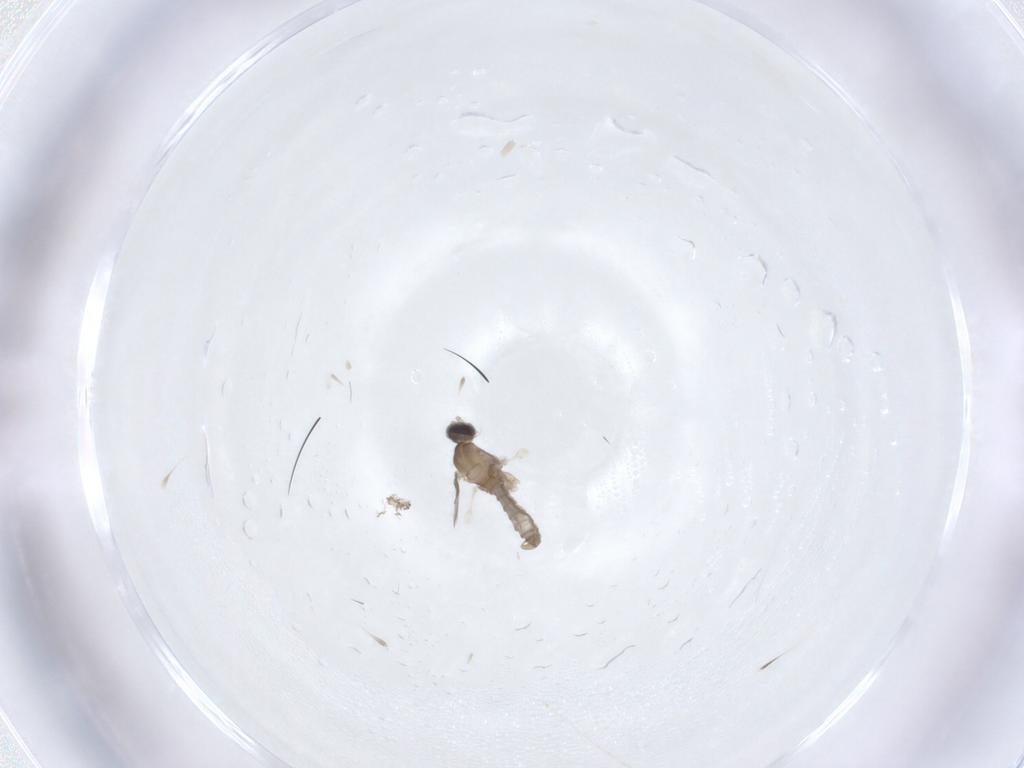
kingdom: Animalia
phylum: Arthropoda
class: Insecta
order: Diptera
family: Cecidomyiidae
